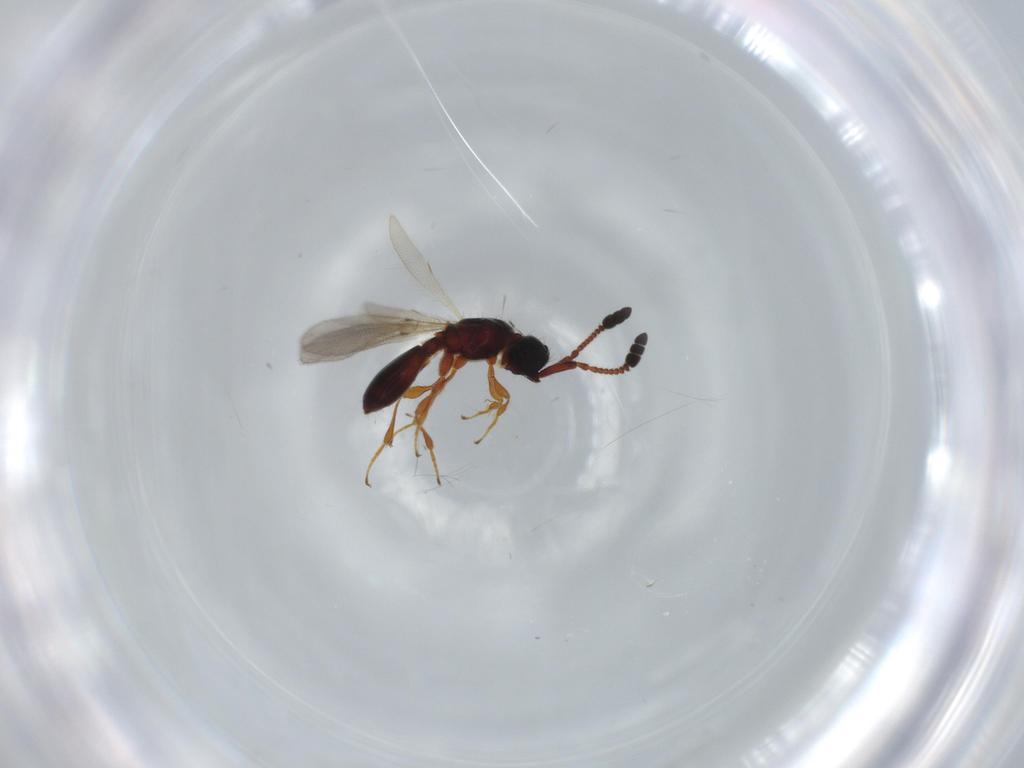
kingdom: Animalia
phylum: Arthropoda
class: Insecta
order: Hymenoptera
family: Diapriidae
